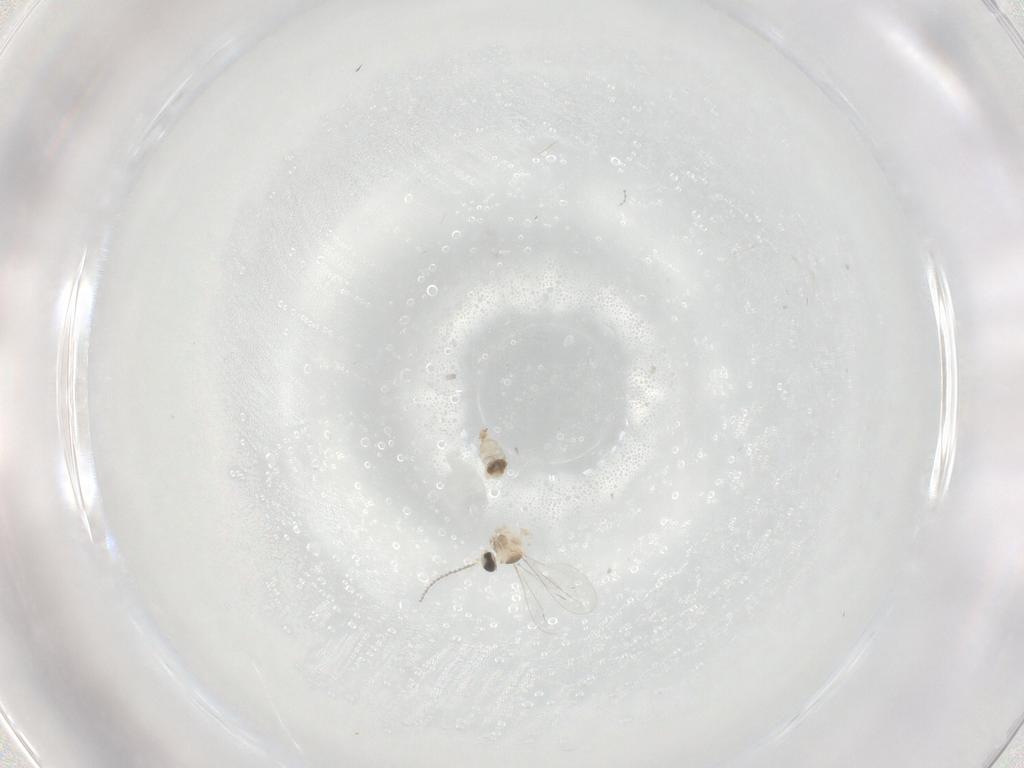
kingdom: Animalia
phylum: Arthropoda
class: Insecta
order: Diptera
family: Cecidomyiidae
